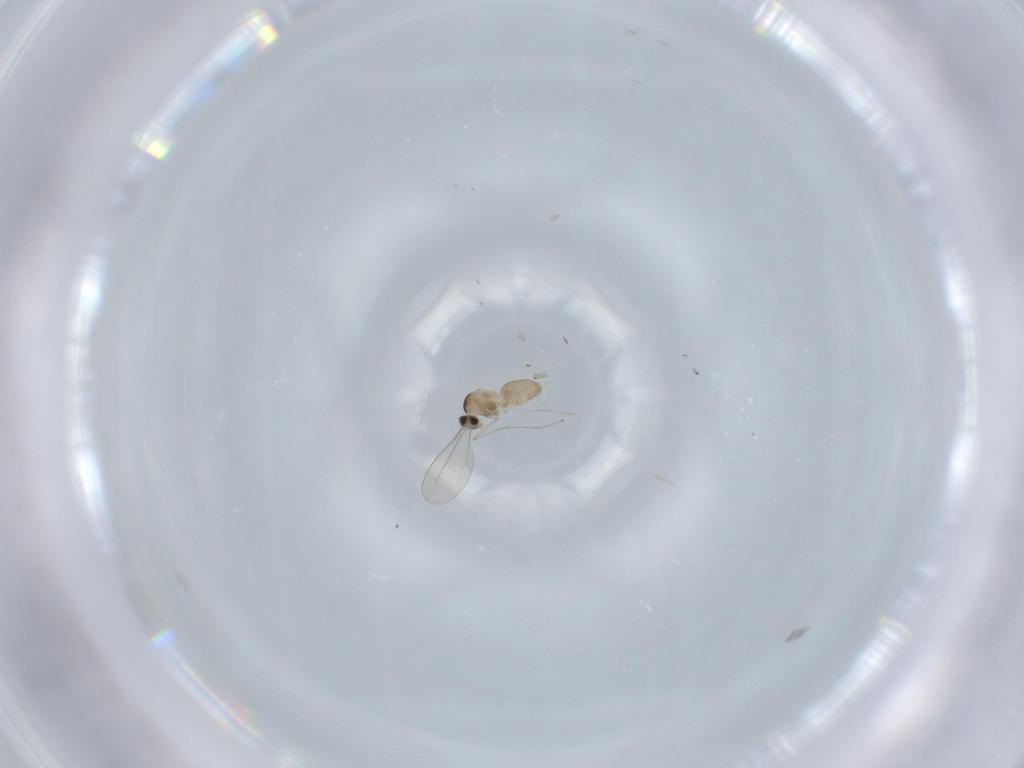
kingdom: Animalia
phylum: Arthropoda
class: Insecta
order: Diptera
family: Cecidomyiidae
